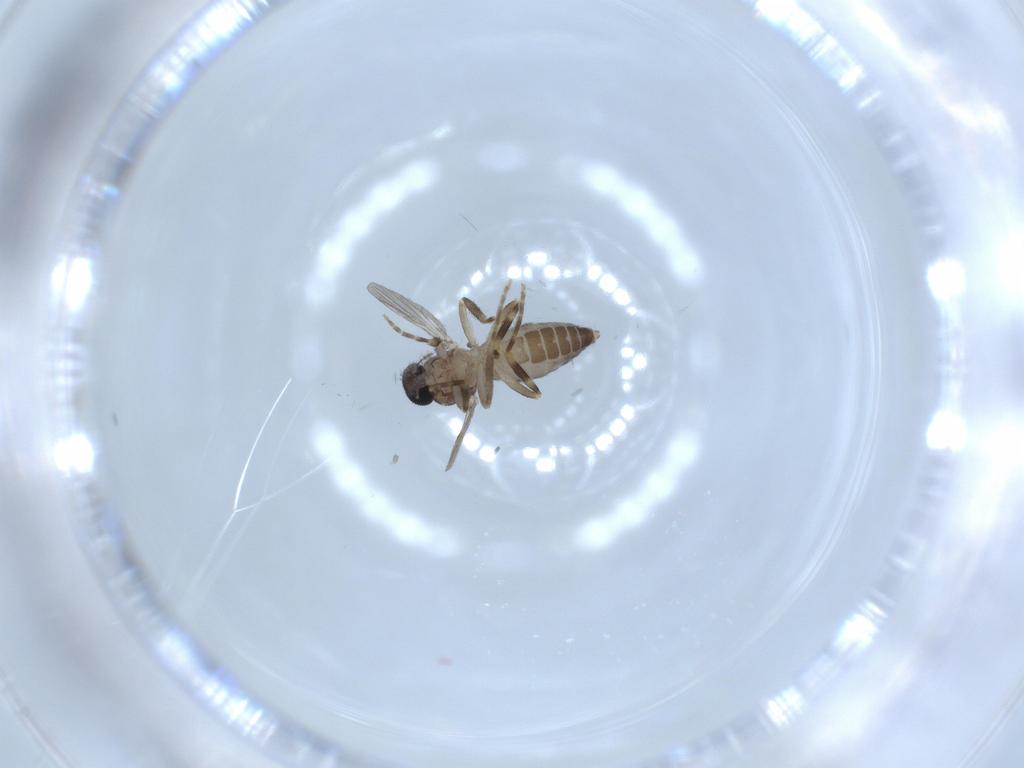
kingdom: Animalia
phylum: Arthropoda
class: Insecta
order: Diptera
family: Ceratopogonidae
